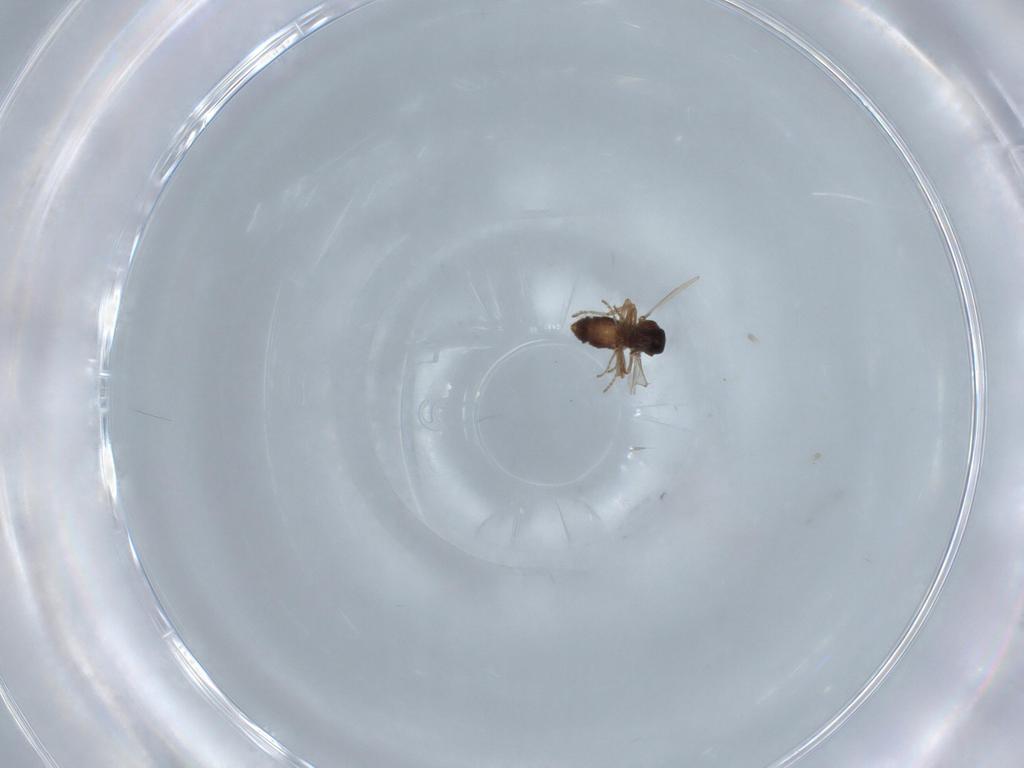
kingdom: Animalia
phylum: Arthropoda
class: Insecta
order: Diptera
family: Ceratopogonidae
